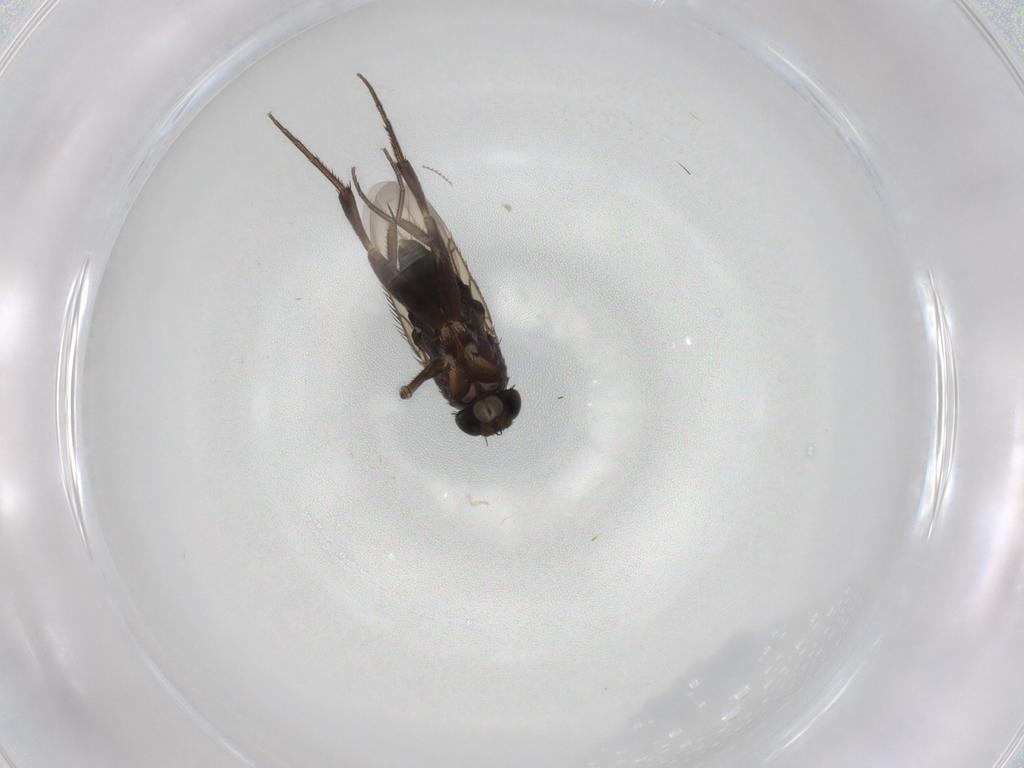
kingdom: Animalia
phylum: Arthropoda
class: Insecta
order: Diptera
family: Phoridae
